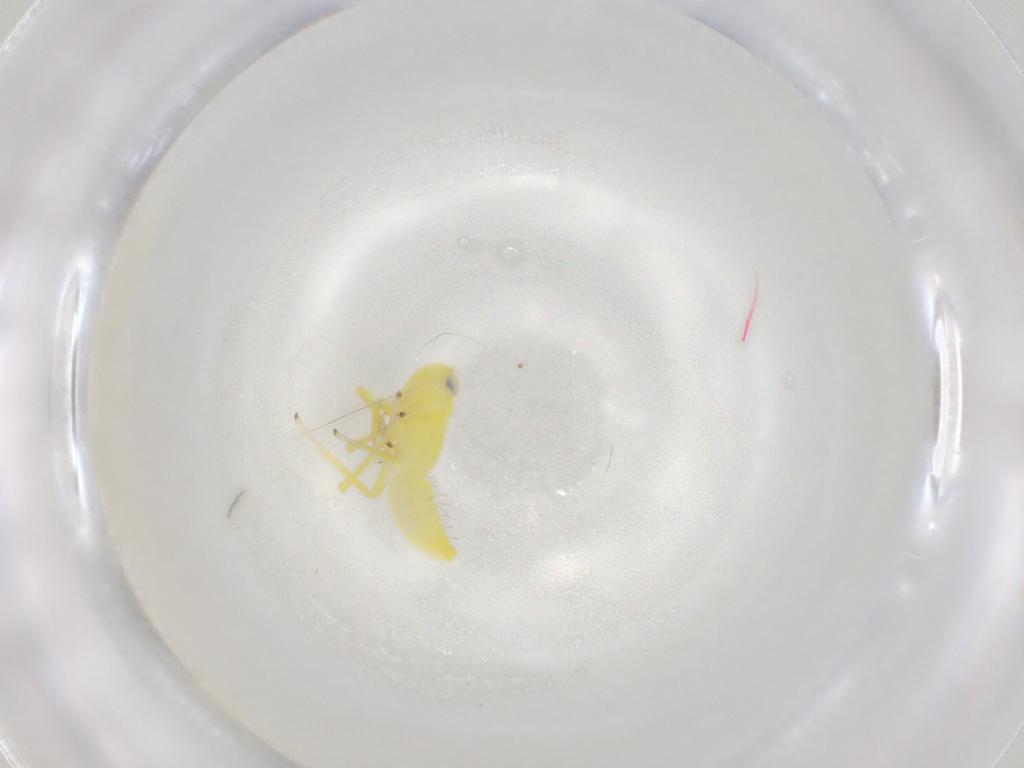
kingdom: Animalia
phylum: Arthropoda
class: Insecta
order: Hemiptera
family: Cicadellidae
